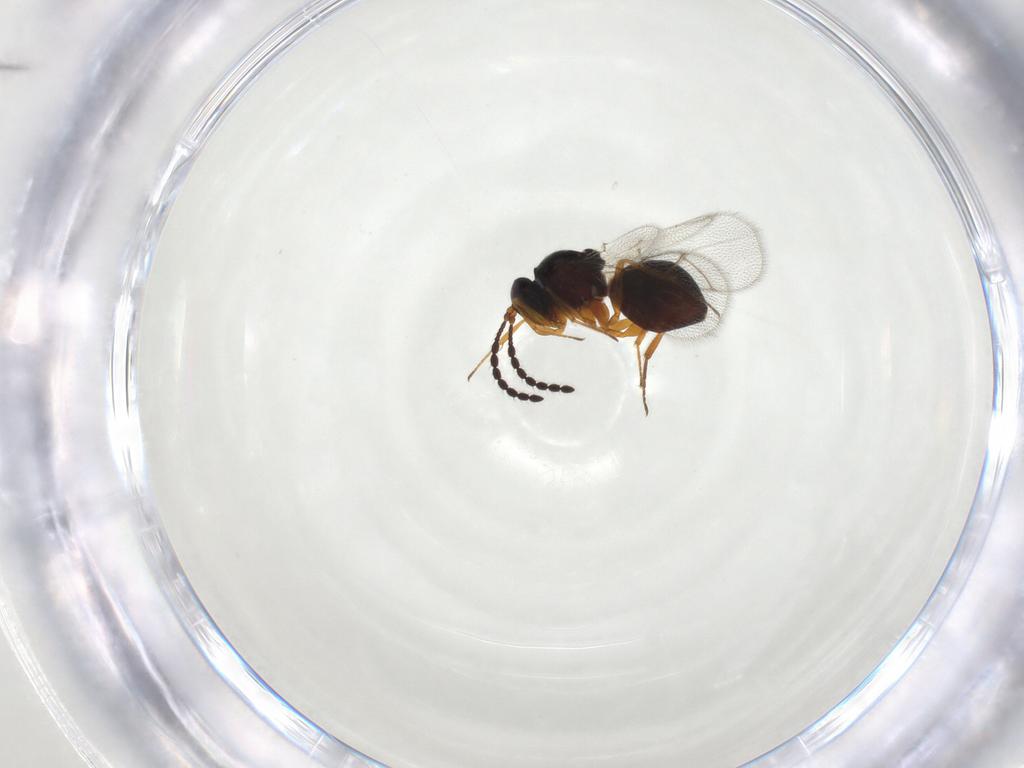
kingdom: Animalia
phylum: Arthropoda
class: Insecta
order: Hymenoptera
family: Figitidae
